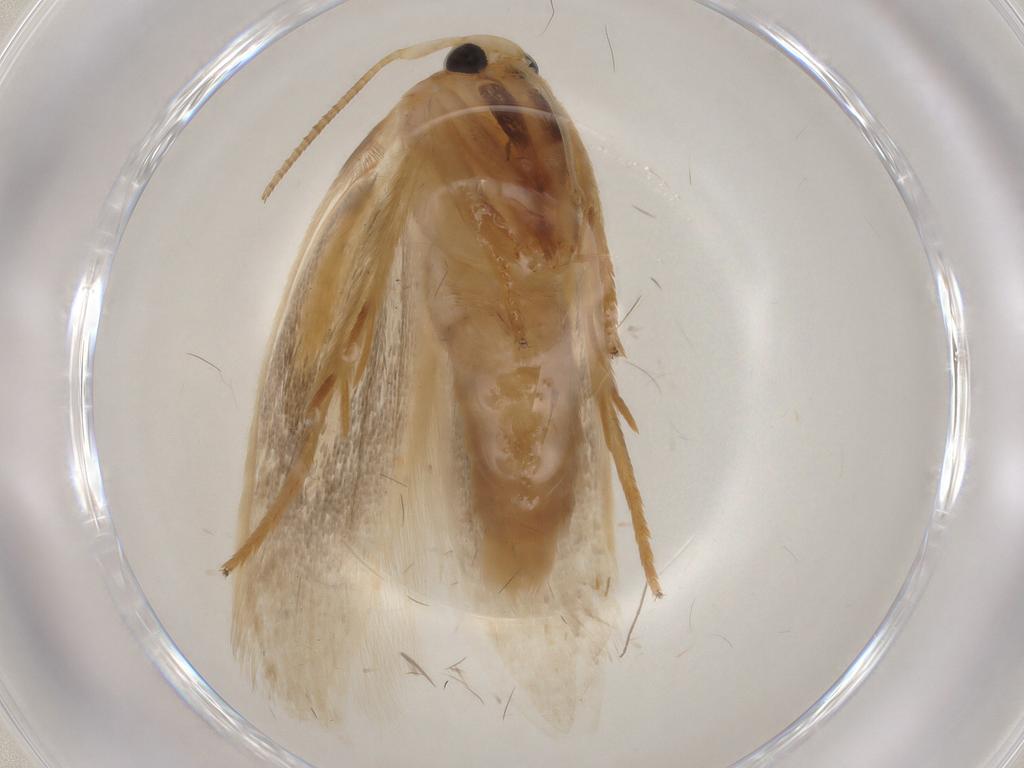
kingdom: Animalia
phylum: Arthropoda
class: Insecta
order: Lepidoptera
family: Geometridae
